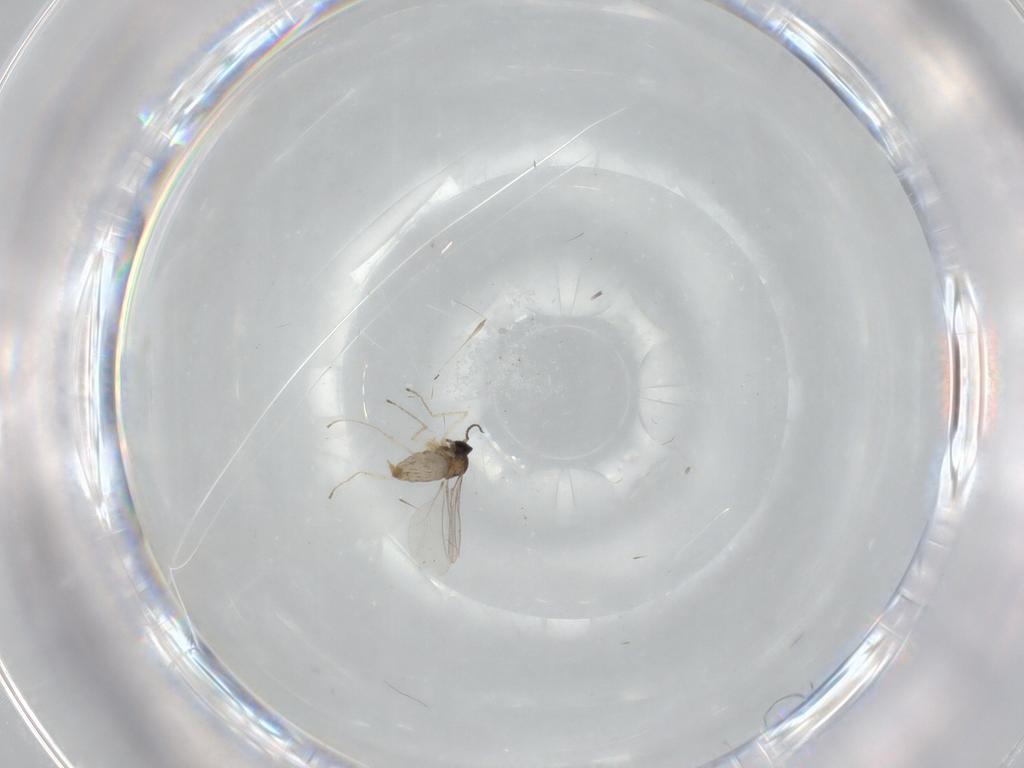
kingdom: Animalia
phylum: Arthropoda
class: Insecta
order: Diptera
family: Cecidomyiidae
